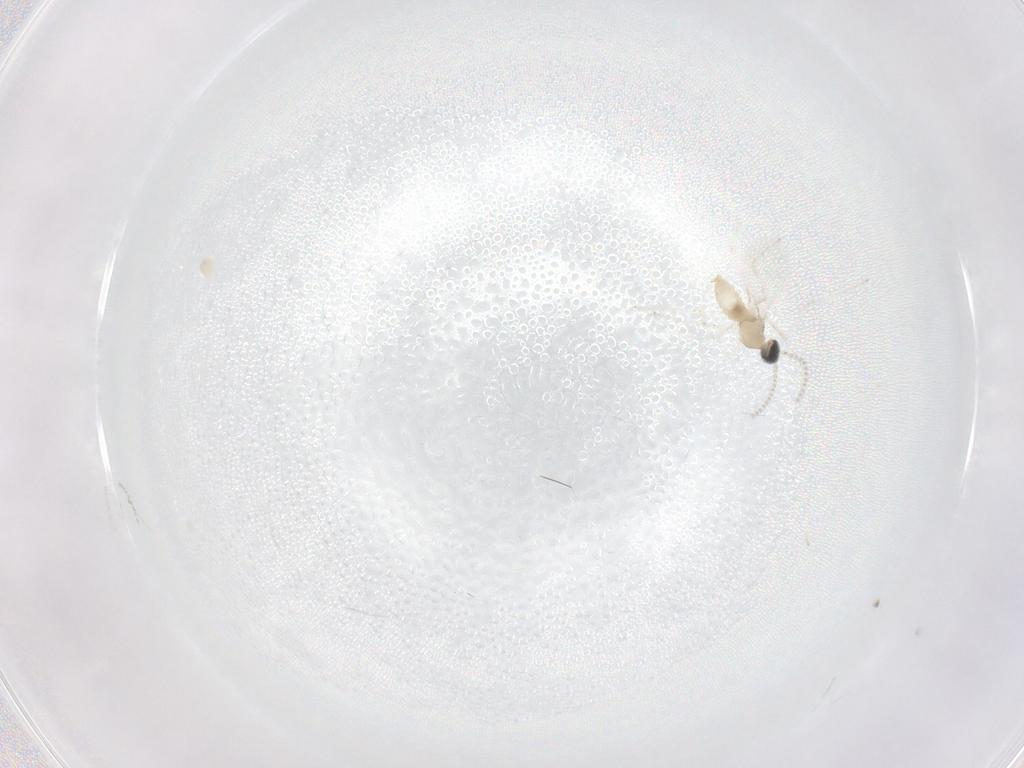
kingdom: Animalia
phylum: Arthropoda
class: Insecta
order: Diptera
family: Cecidomyiidae
